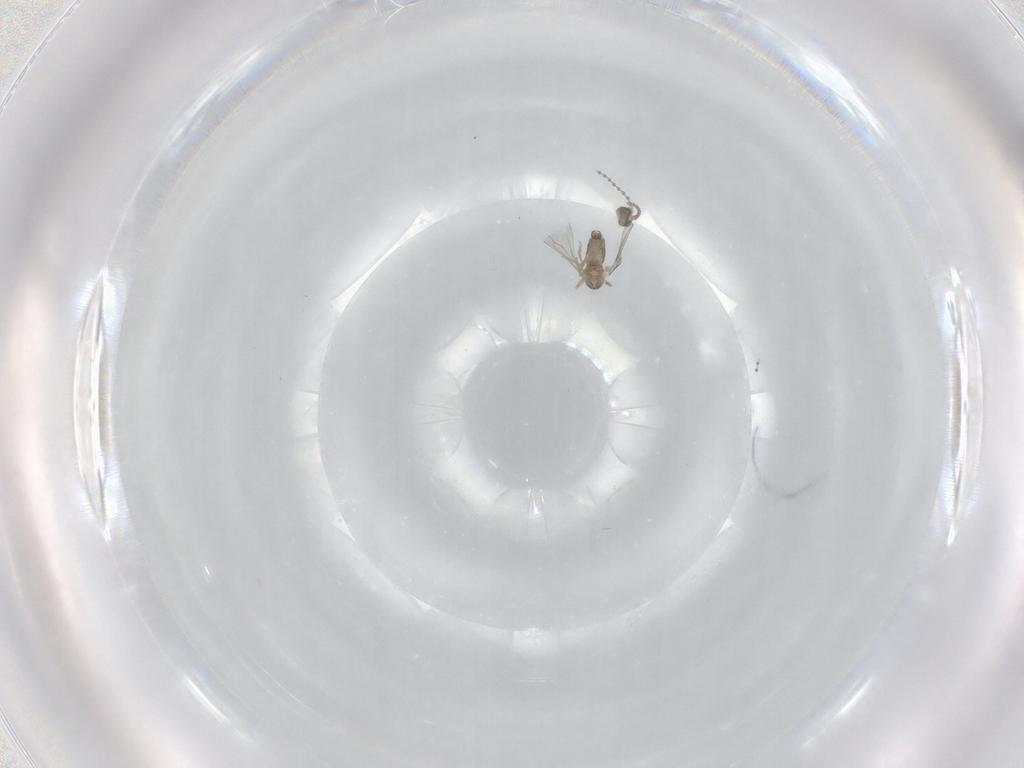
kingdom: Animalia
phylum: Arthropoda
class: Insecta
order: Diptera
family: Cecidomyiidae
